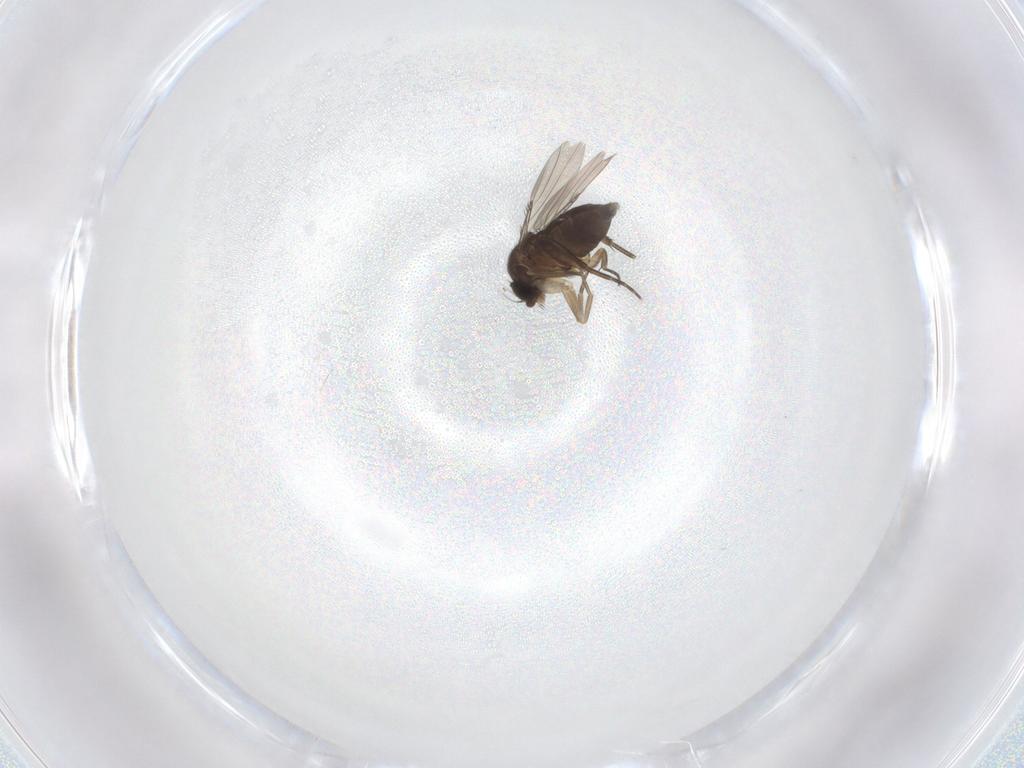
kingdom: Animalia
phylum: Arthropoda
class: Insecta
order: Diptera
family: Phoridae
